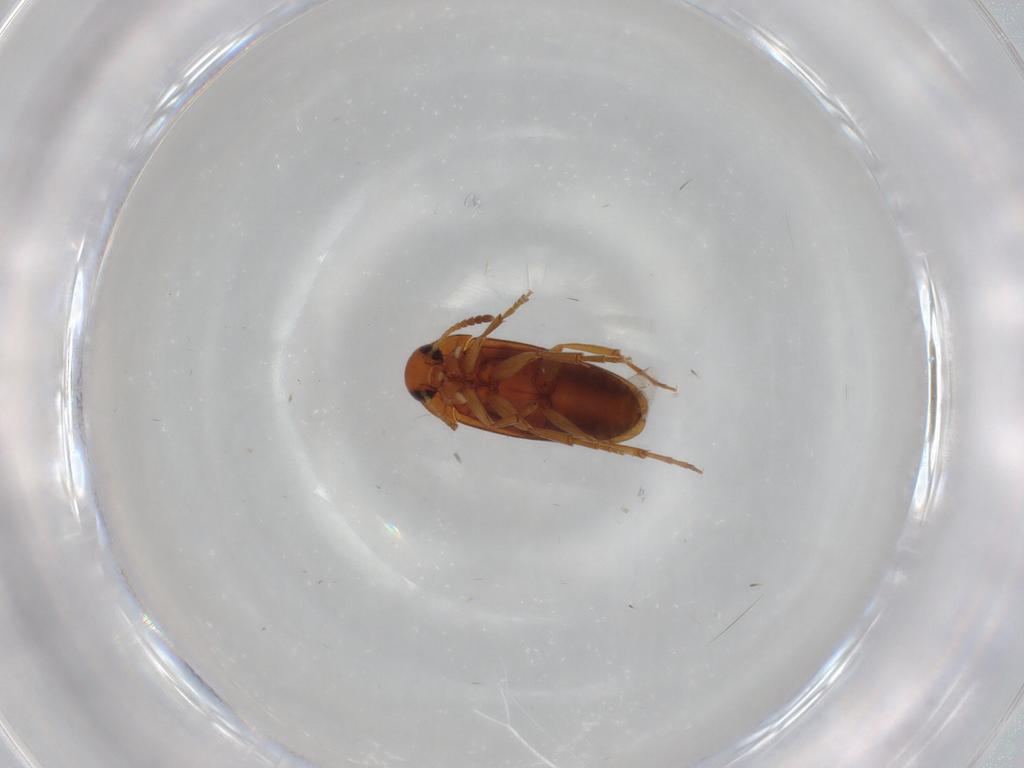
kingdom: Animalia
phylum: Arthropoda
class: Insecta
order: Coleoptera
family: Scraptiidae
